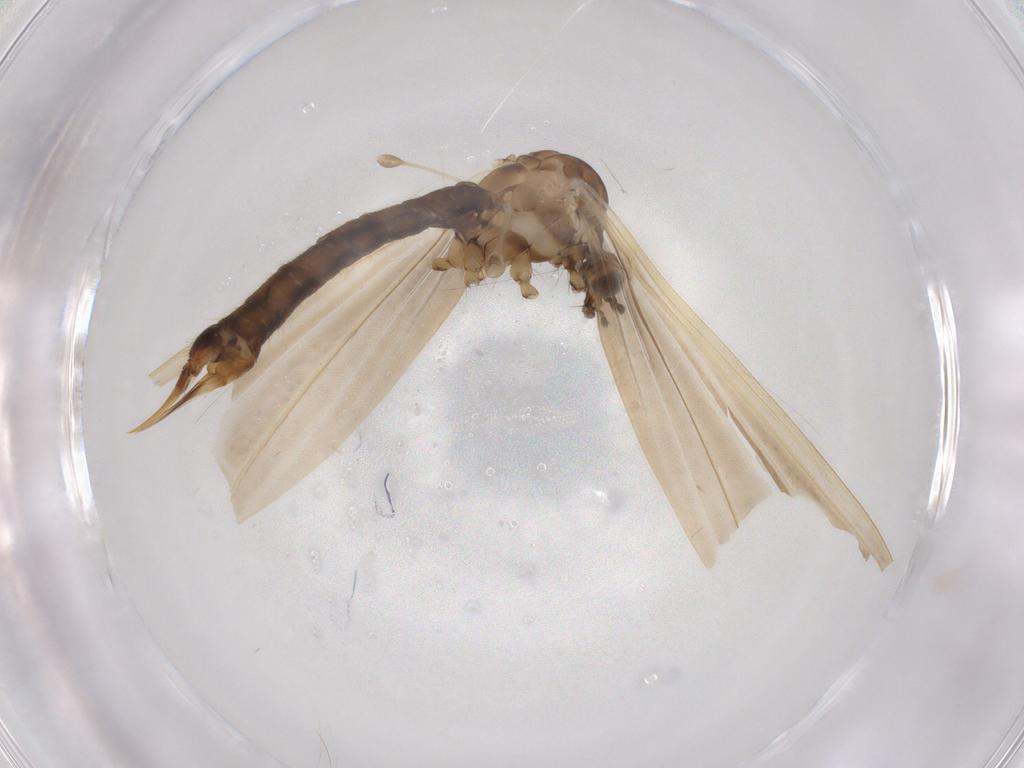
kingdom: Animalia
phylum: Arthropoda
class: Insecta
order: Diptera
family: Limoniidae
